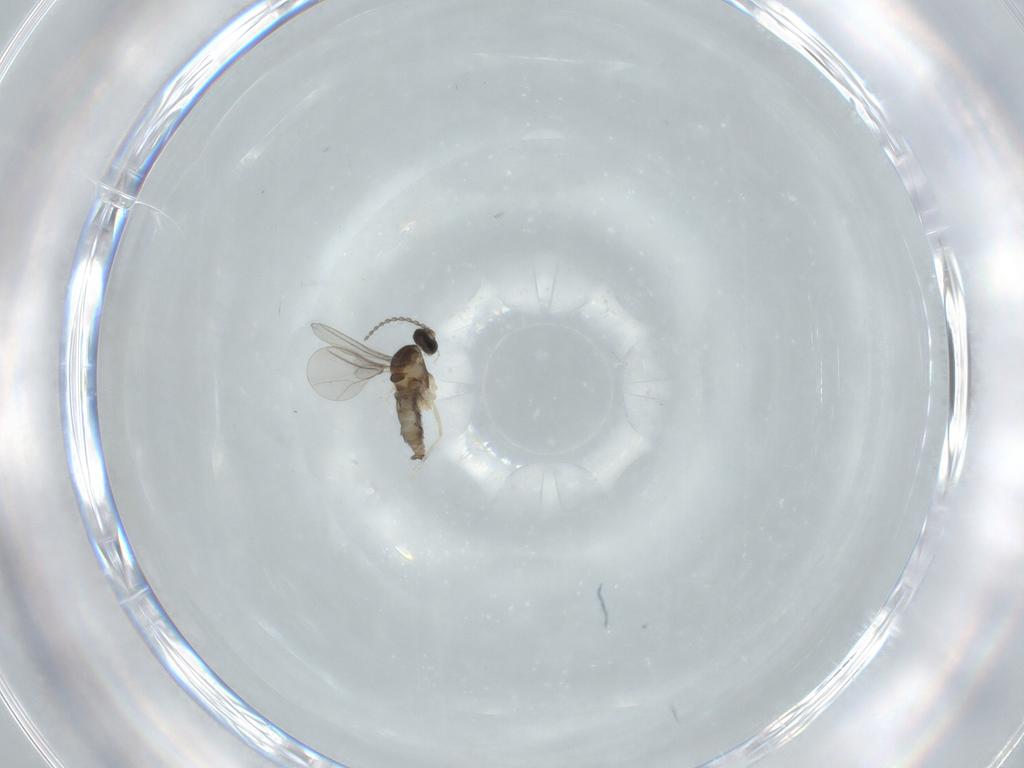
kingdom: Animalia
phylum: Arthropoda
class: Insecta
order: Diptera
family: Cecidomyiidae
